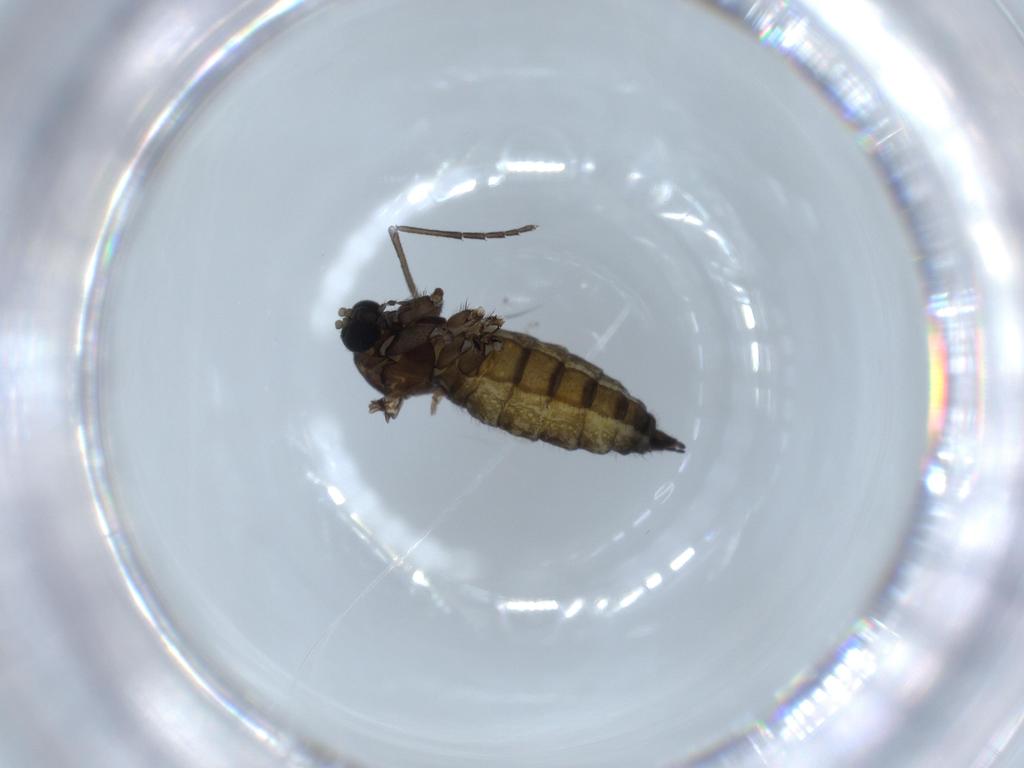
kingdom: Animalia
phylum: Arthropoda
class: Insecta
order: Diptera
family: Sciaridae
